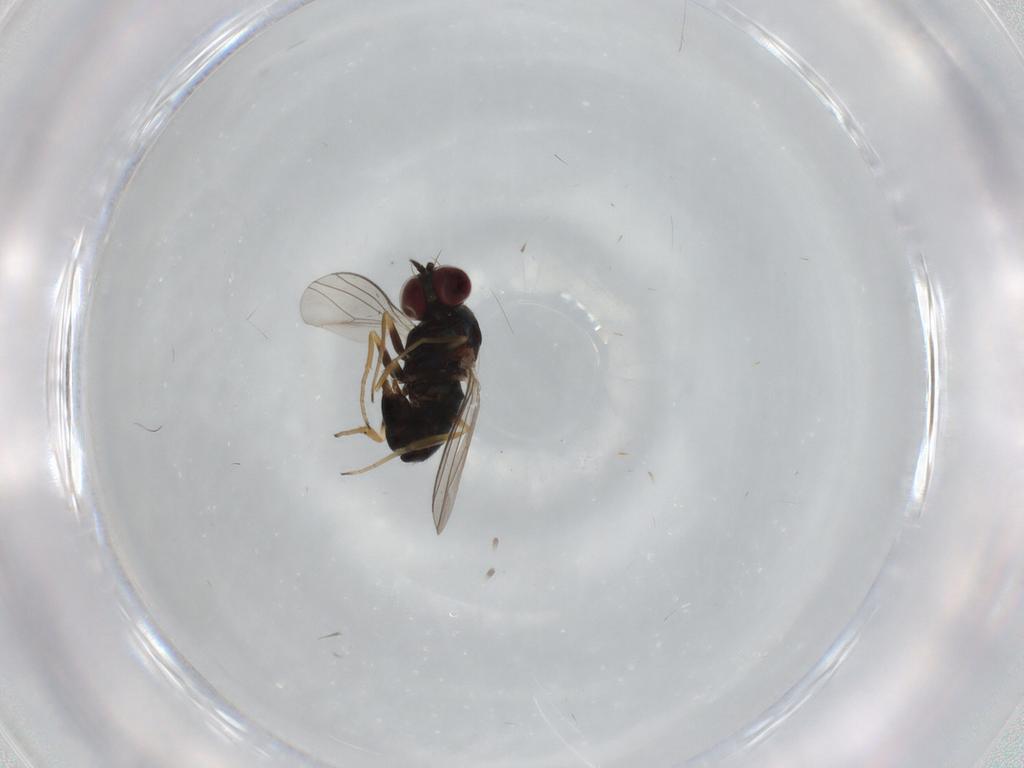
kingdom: Animalia
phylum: Arthropoda
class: Insecta
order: Diptera
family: Dolichopodidae
